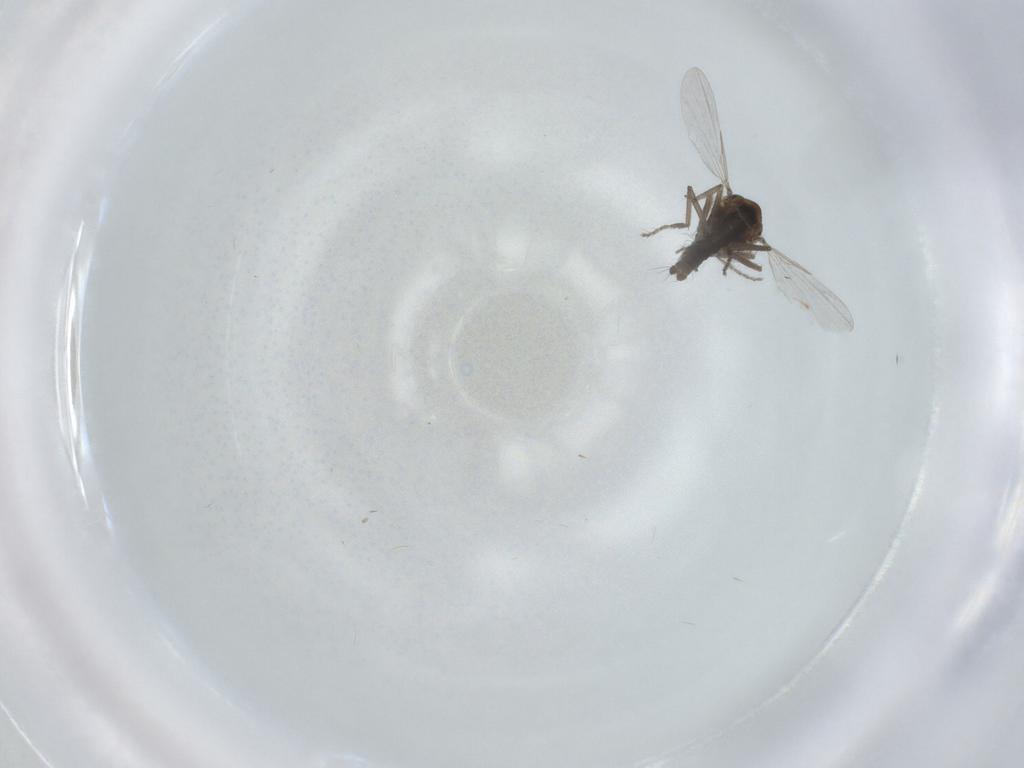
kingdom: Animalia
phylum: Arthropoda
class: Insecta
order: Diptera
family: Ceratopogonidae
